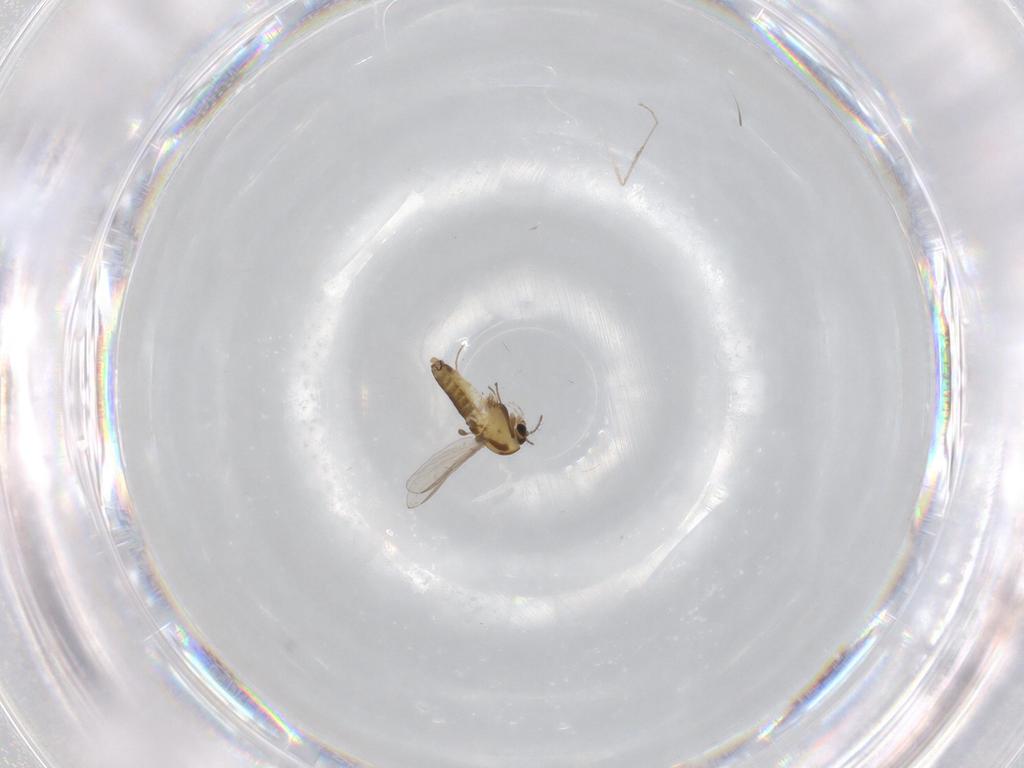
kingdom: Animalia
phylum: Arthropoda
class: Insecta
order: Diptera
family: Chironomidae
